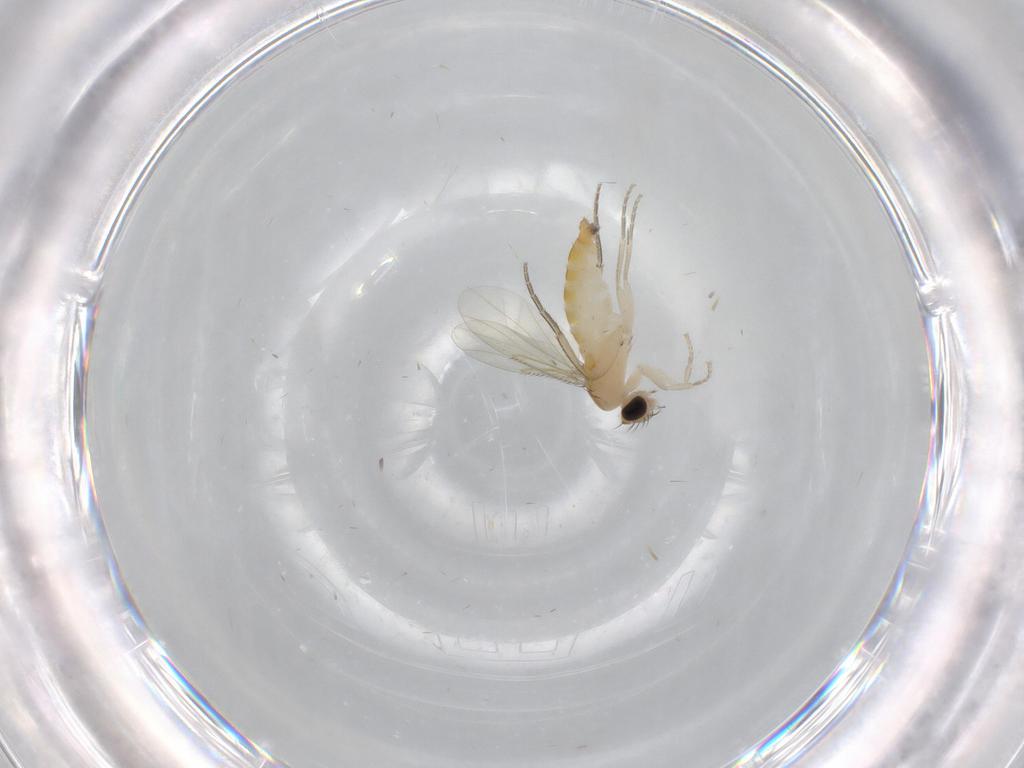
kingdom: Animalia
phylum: Arthropoda
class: Insecta
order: Diptera
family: Phoridae
